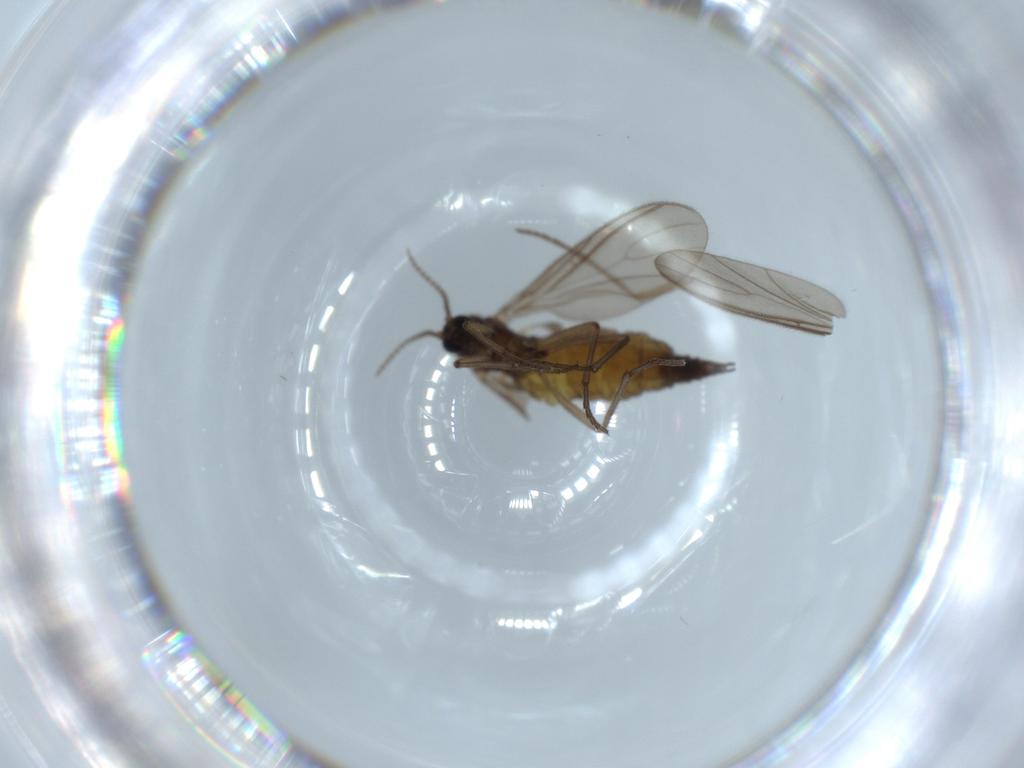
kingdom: Animalia
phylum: Arthropoda
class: Insecta
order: Diptera
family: Sciaridae
